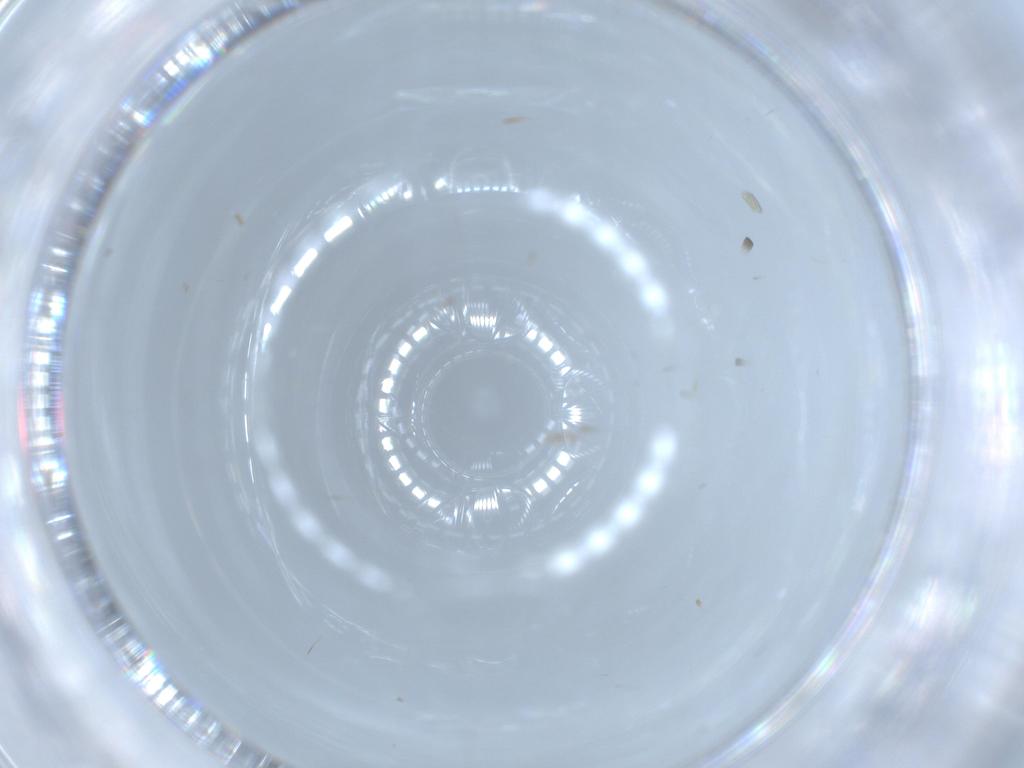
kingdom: Animalia
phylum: Arthropoda
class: Insecta
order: Hymenoptera
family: Megachilidae
